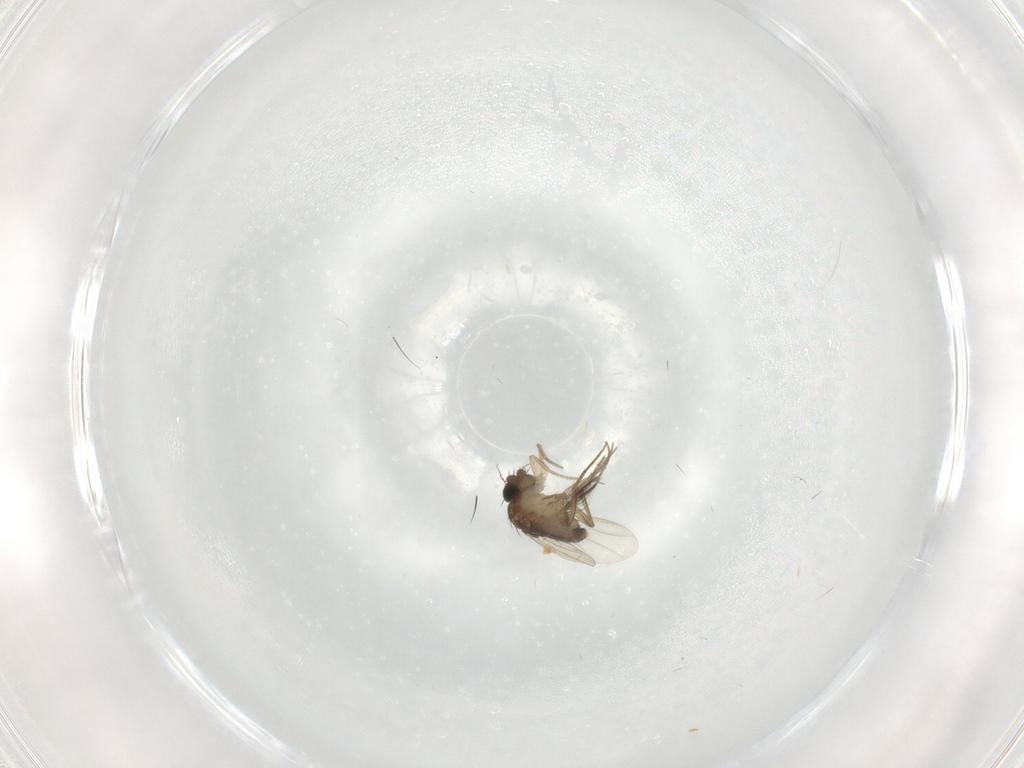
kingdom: Animalia
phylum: Arthropoda
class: Insecta
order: Diptera
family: Phoridae
